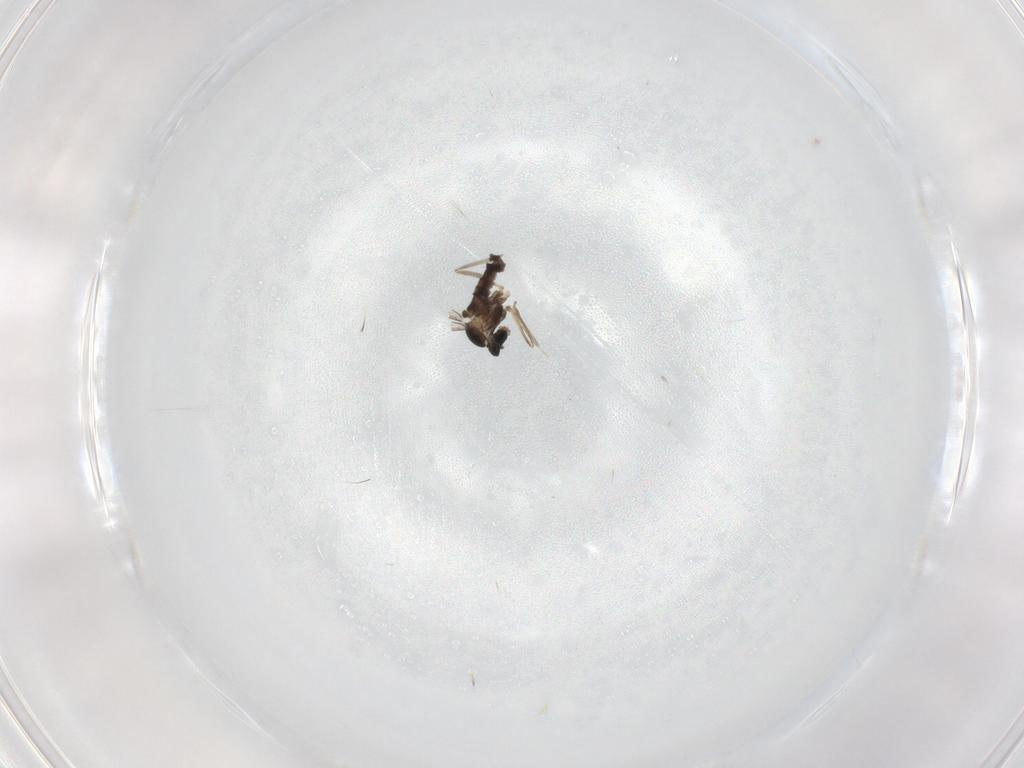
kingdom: Animalia
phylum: Arthropoda
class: Insecta
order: Diptera
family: Cecidomyiidae
